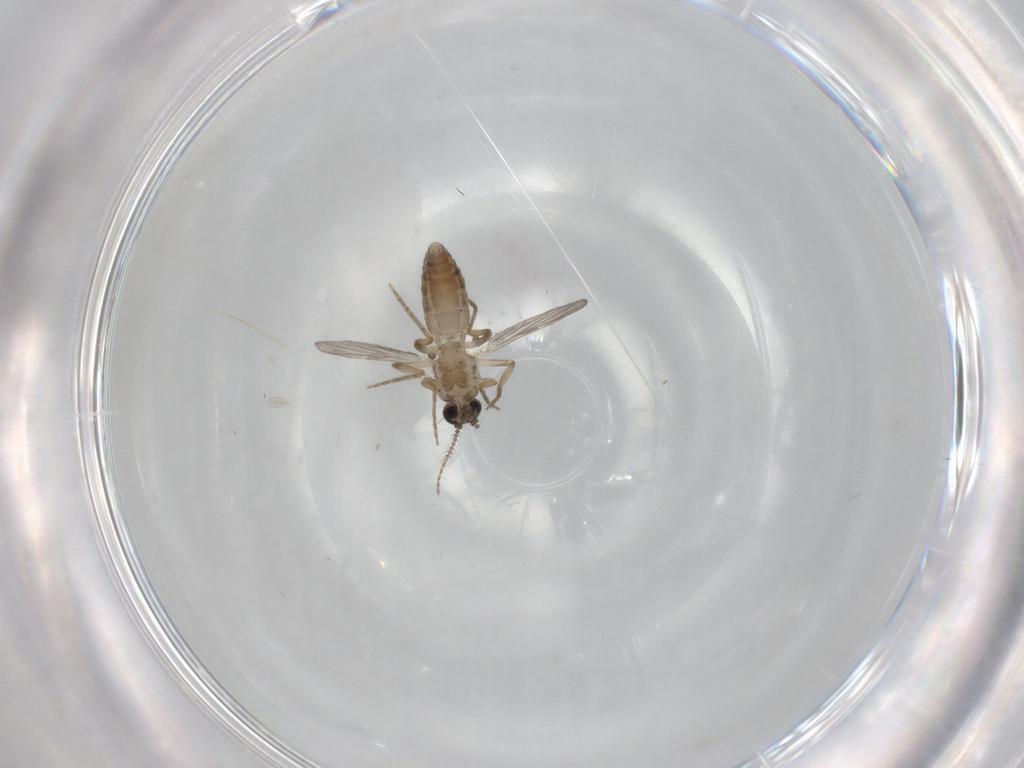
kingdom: Animalia
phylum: Arthropoda
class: Insecta
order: Diptera
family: Ceratopogonidae
